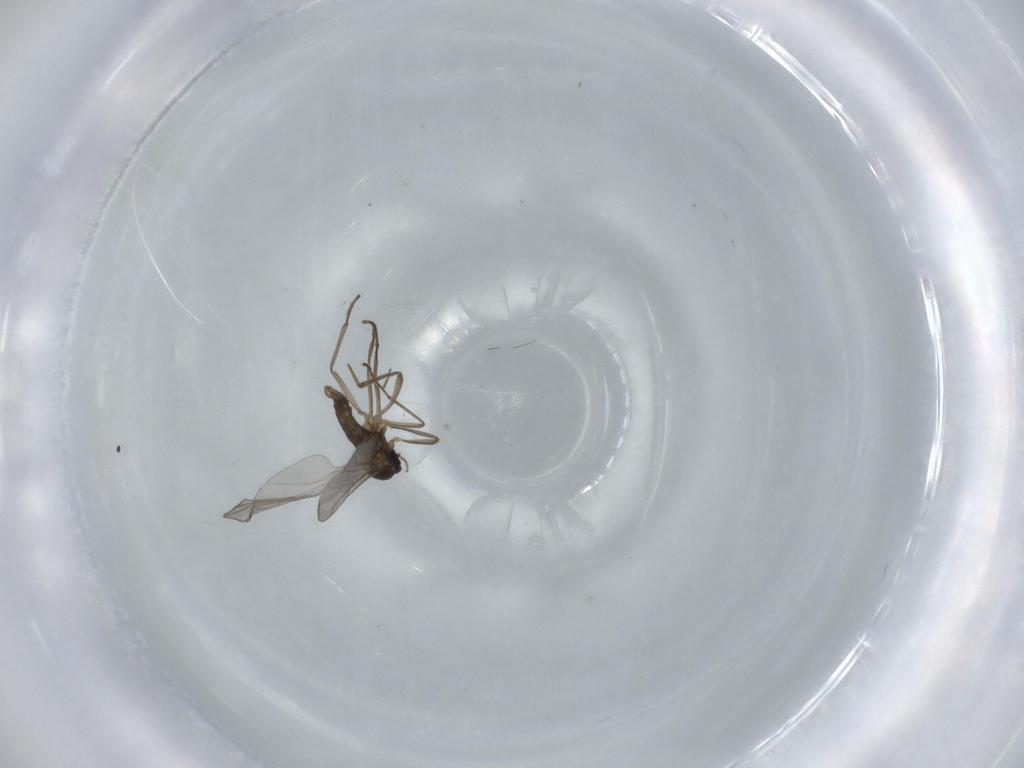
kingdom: Animalia
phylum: Arthropoda
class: Insecta
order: Diptera
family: Cecidomyiidae
